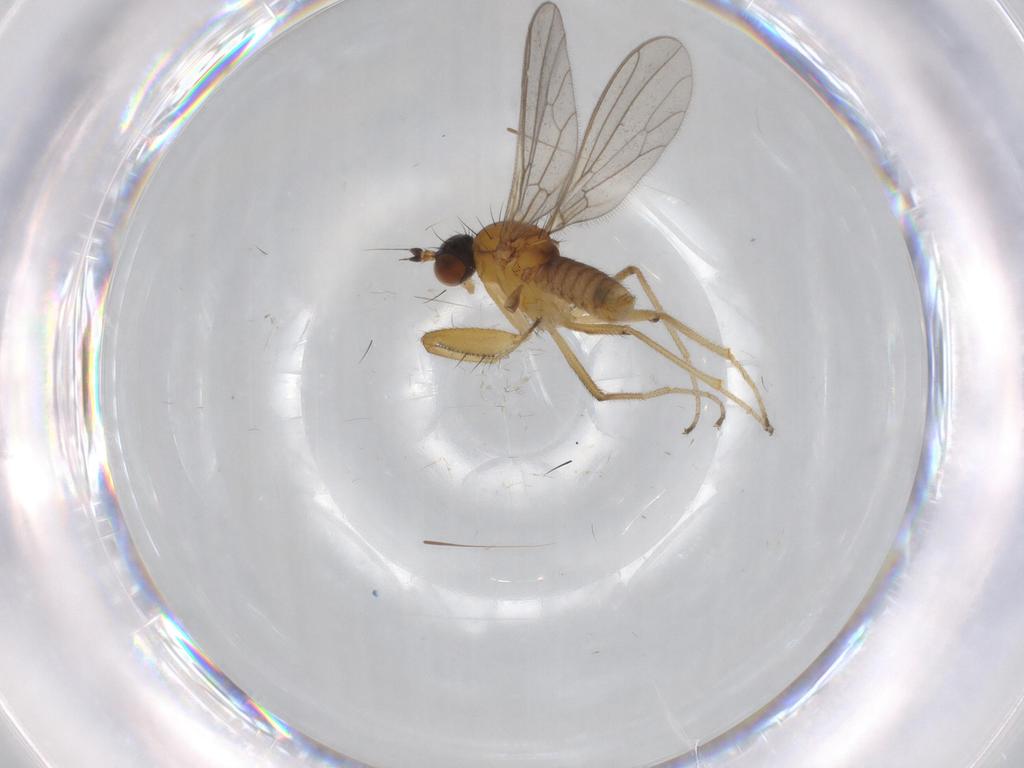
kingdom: Animalia
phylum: Arthropoda
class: Insecta
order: Diptera
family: Empididae
